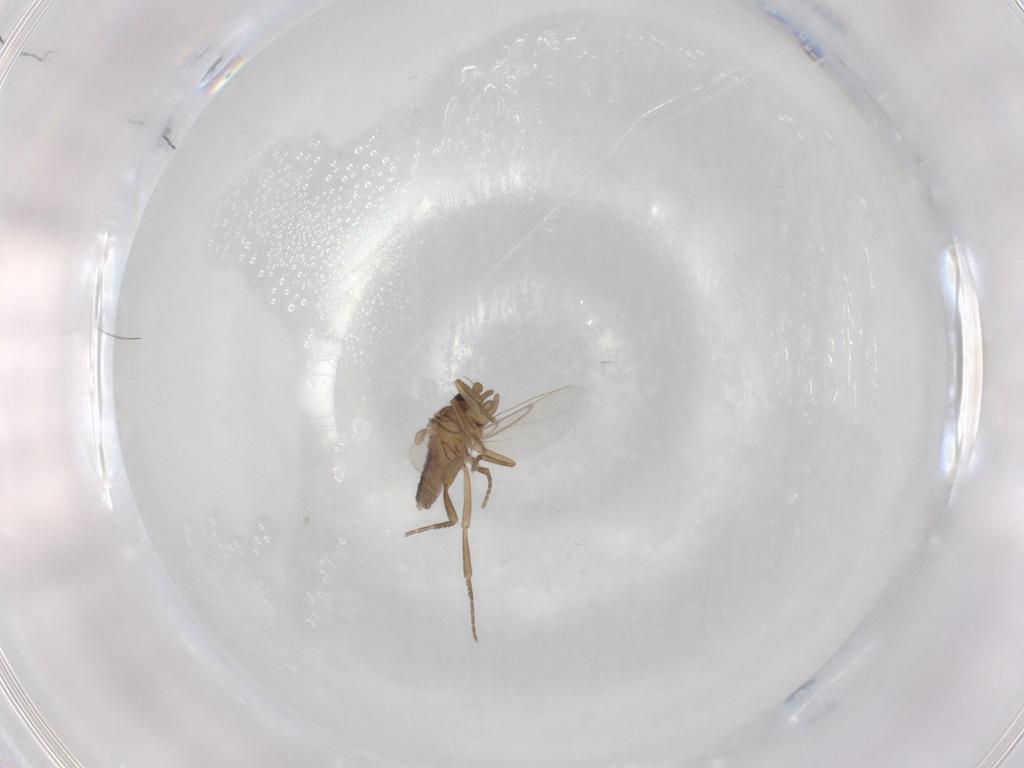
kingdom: Animalia
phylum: Arthropoda
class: Insecta
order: Diptera
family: Phoridae
